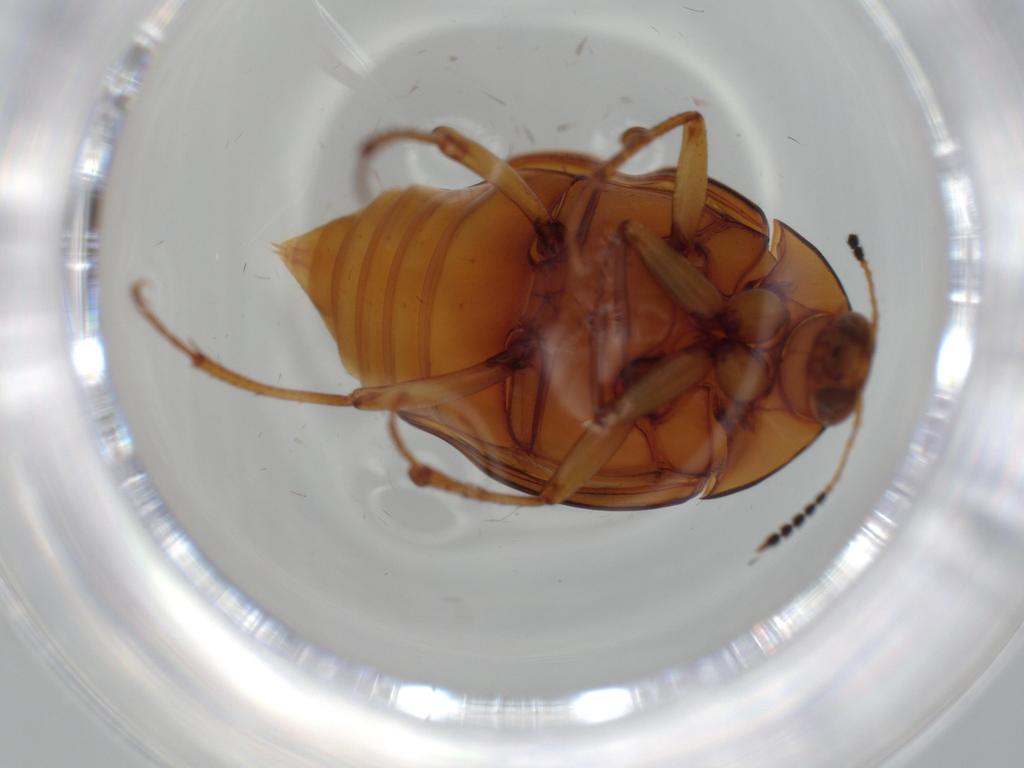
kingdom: Animalia
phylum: Arthropoda
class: Insecta
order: Coleoptera
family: Staphylinidae
